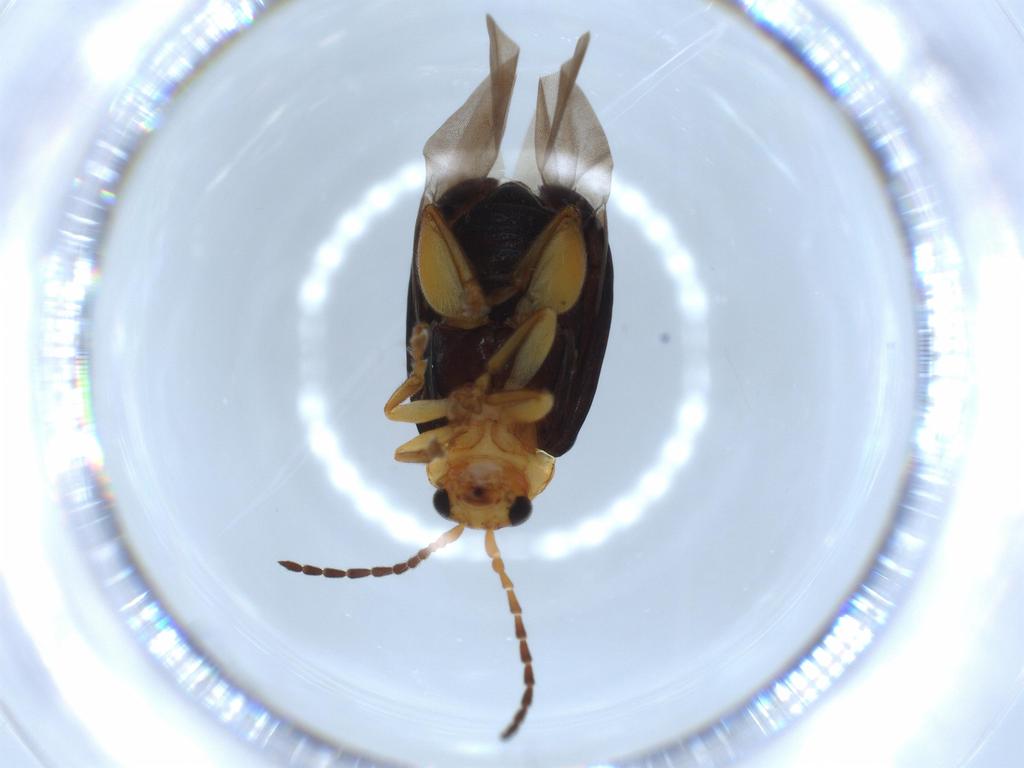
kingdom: Animalia
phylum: Arthropoda
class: Insecta
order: Coleoptera
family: Chrysomelidae
